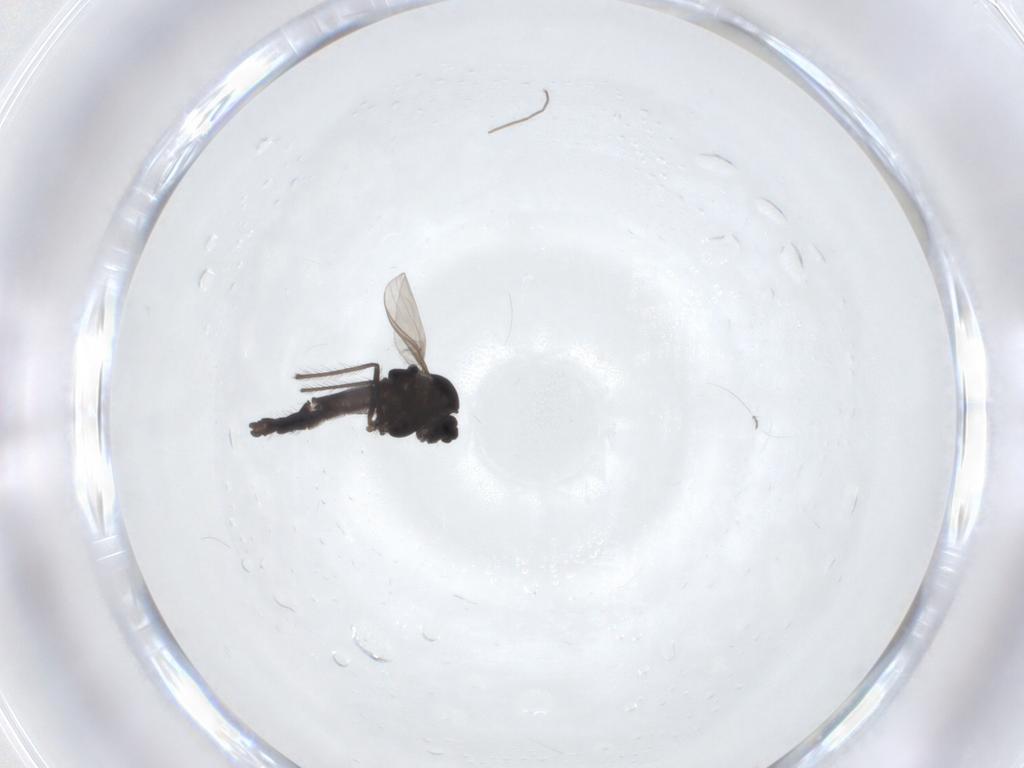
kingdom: Animalia
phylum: Arthropoda
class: Insecta
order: Diptera
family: Chironomidae
